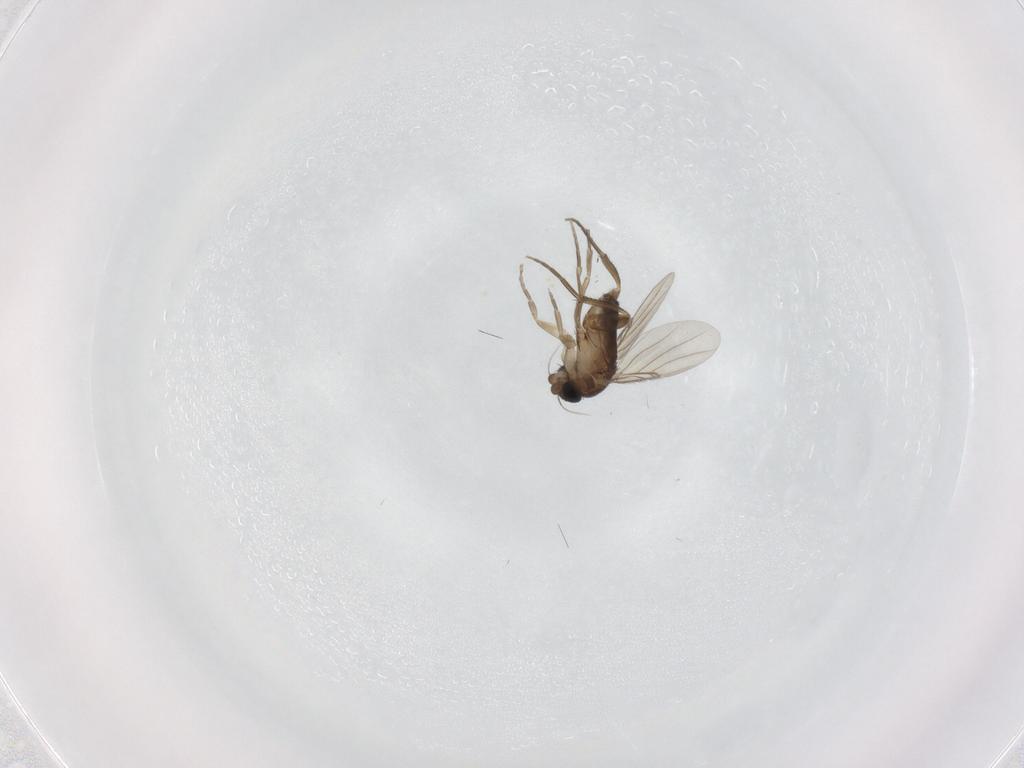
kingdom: Animalia
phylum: Arthropoda
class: Insecta
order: Diptera
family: Phoridae
